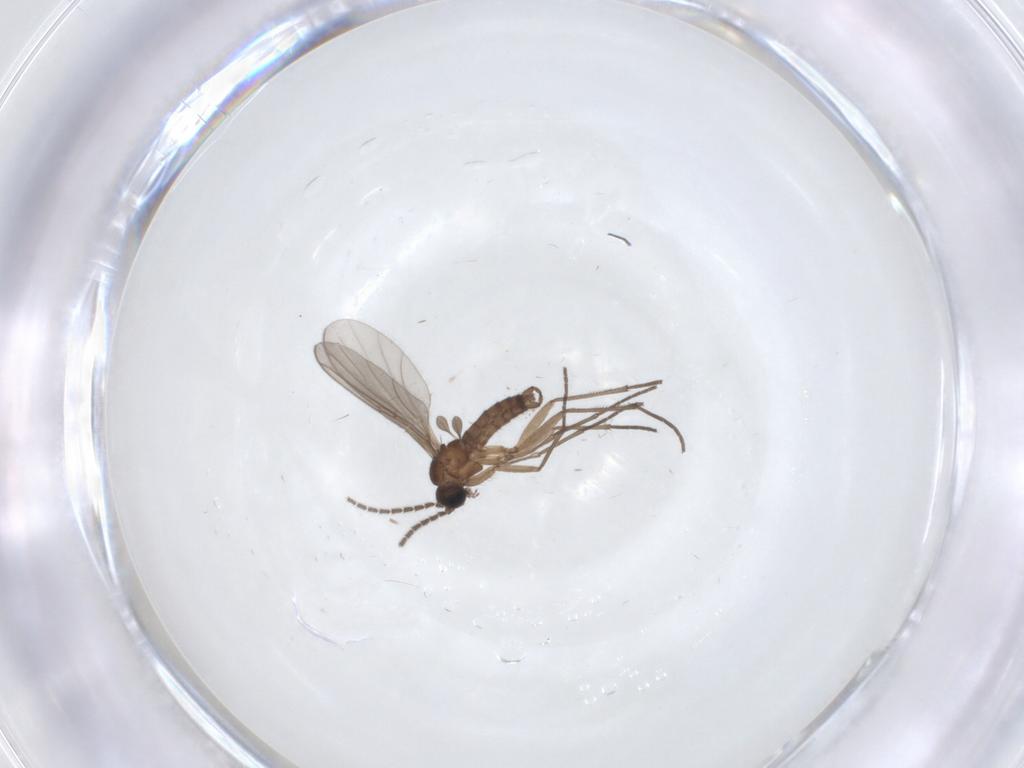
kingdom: Animalia
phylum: Arthropoda
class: Insecta
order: Diptera
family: Sciaridae
